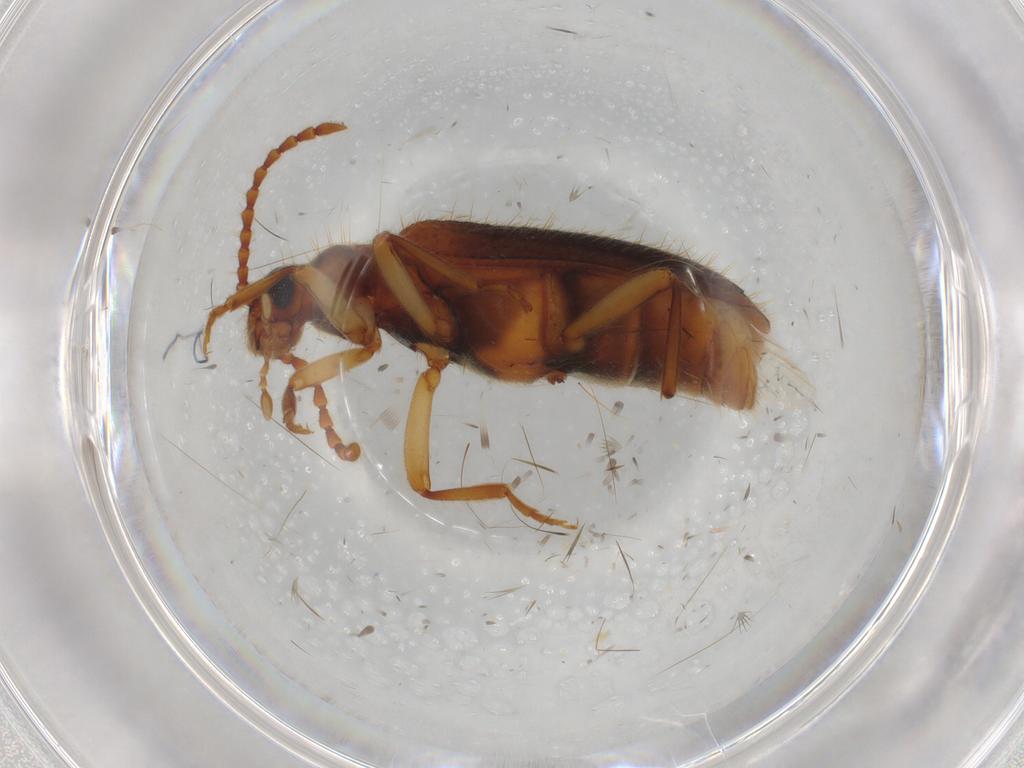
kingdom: Animalia
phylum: Arthropoda
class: Insecta
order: Coleoptera
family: Anthicidae
